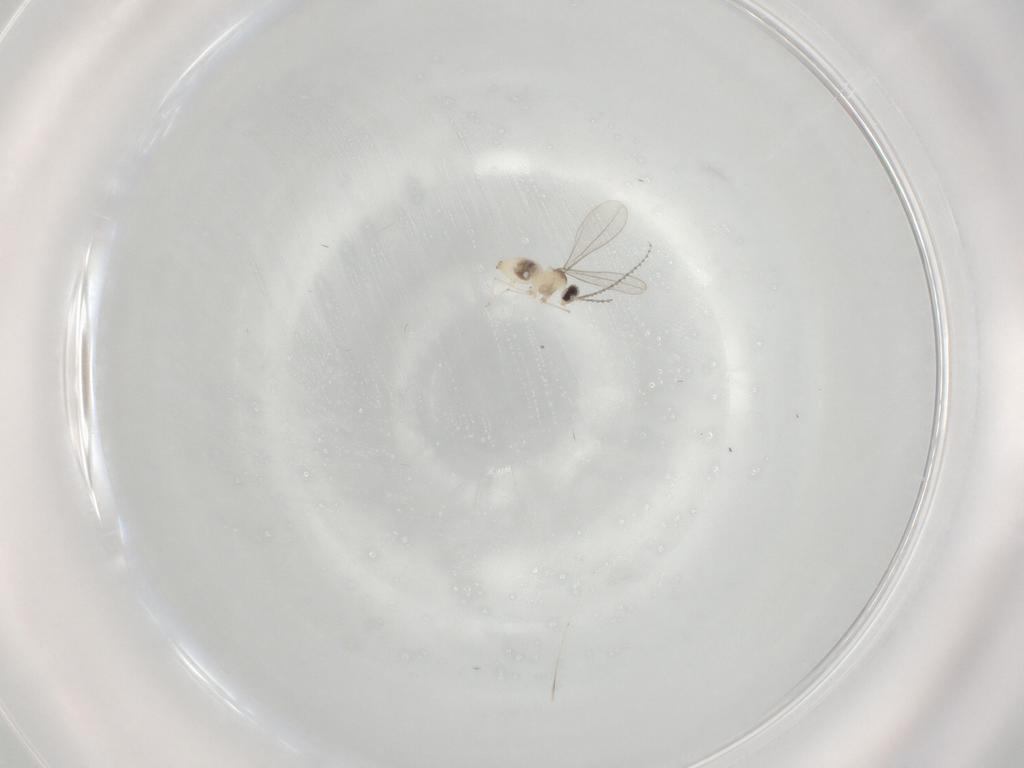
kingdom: Animalia
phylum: Arthropoda
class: Insecta
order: Diptera
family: Cecidomyiidae
